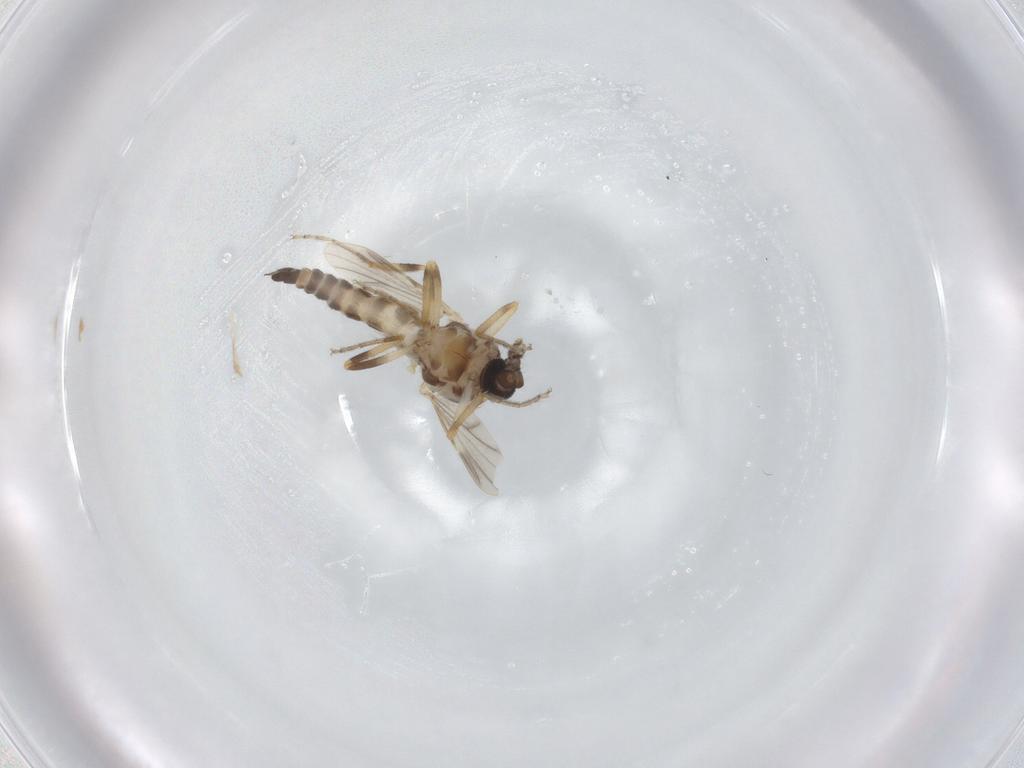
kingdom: Animalia
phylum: Arthropoda
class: Insecta
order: Diptera
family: Ceratopogonidae
